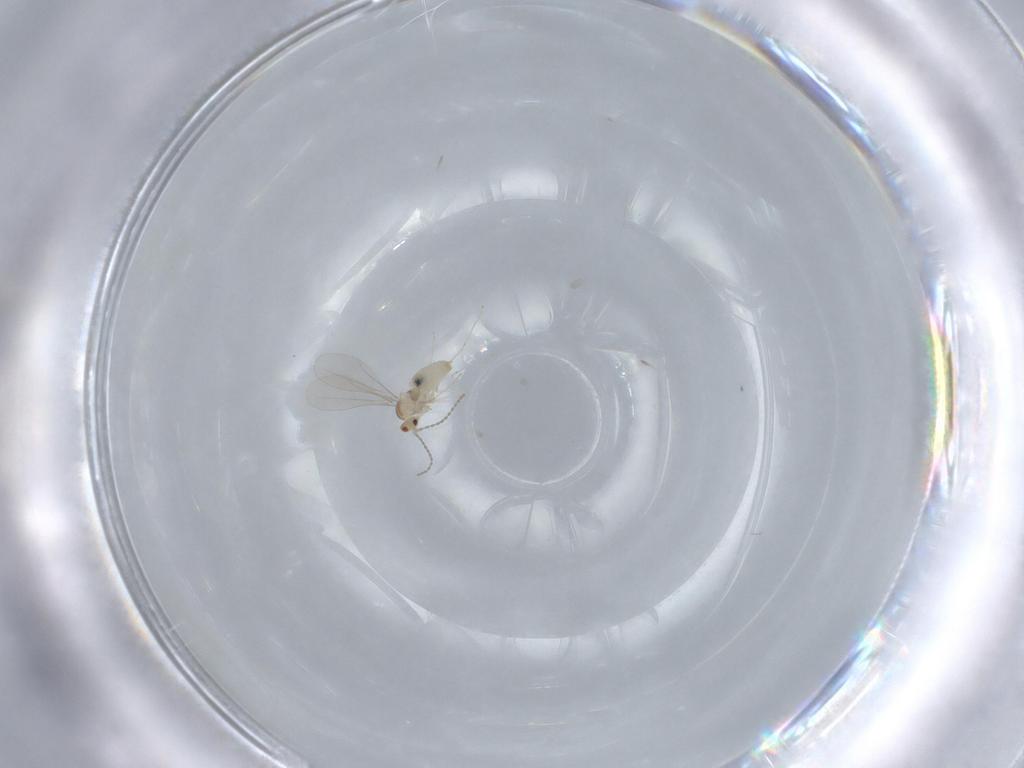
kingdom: Animalia
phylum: Arthropoda
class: Insecta
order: Diptera
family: Cecidomyiidae
